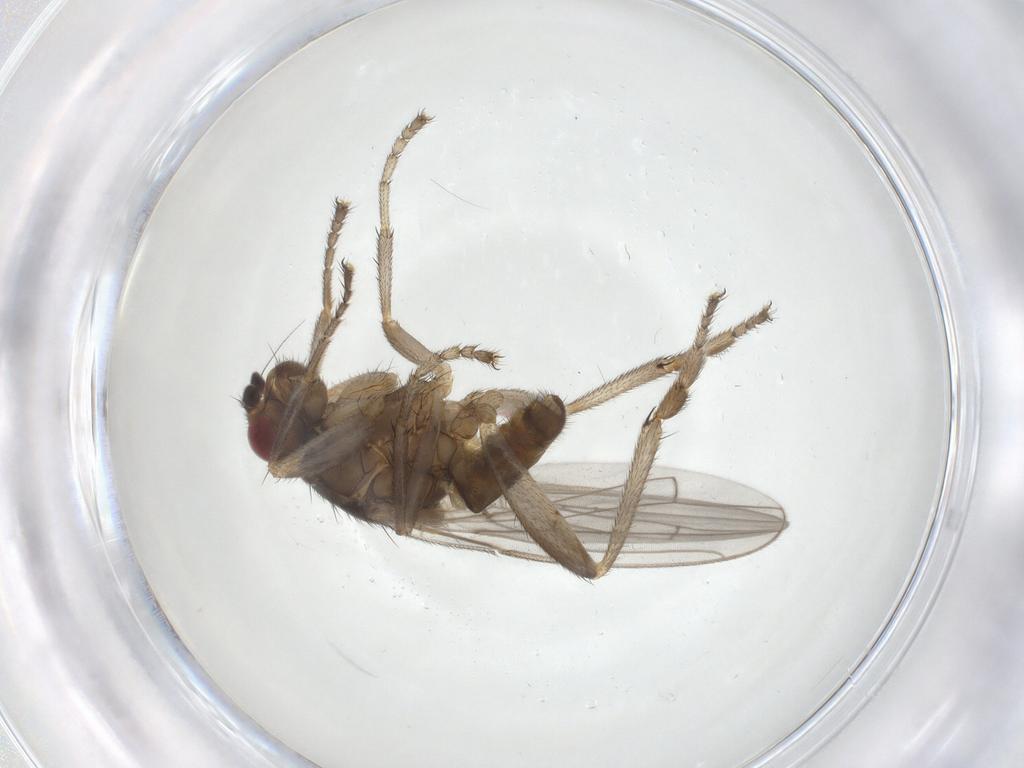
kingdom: Animalia
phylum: Arthropoda
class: Insecta
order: Diptera
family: Sphaeroceridae
